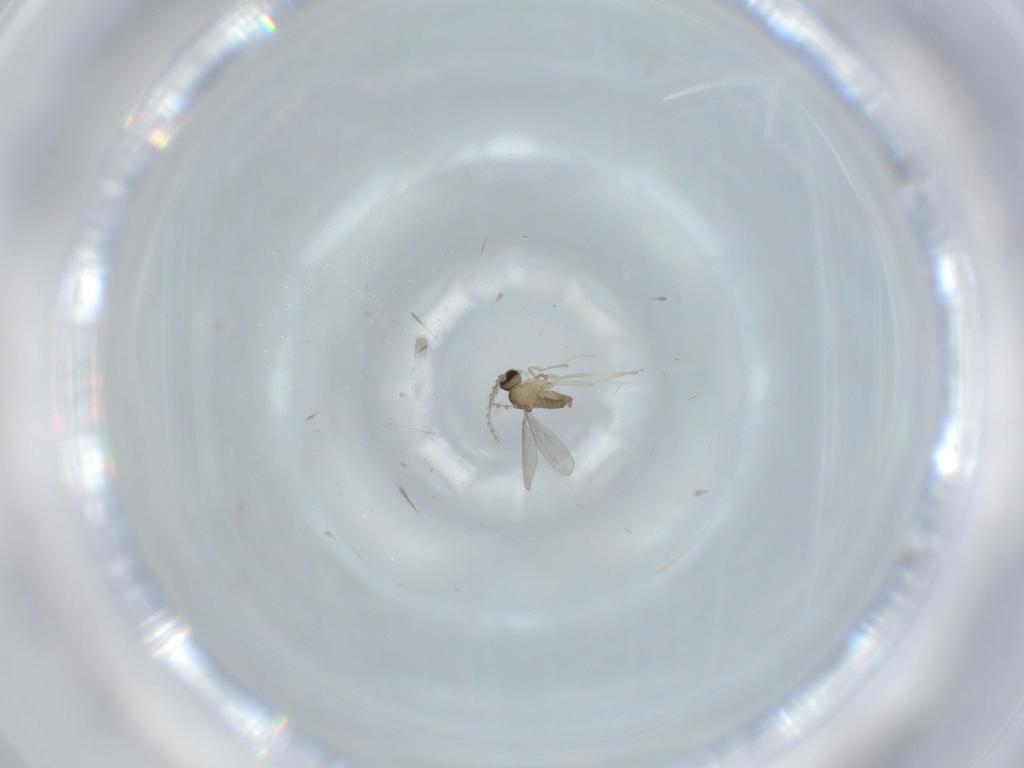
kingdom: Animalia
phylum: Arthropoda
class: Insecta
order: Diptera
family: Cecidomyiidae
